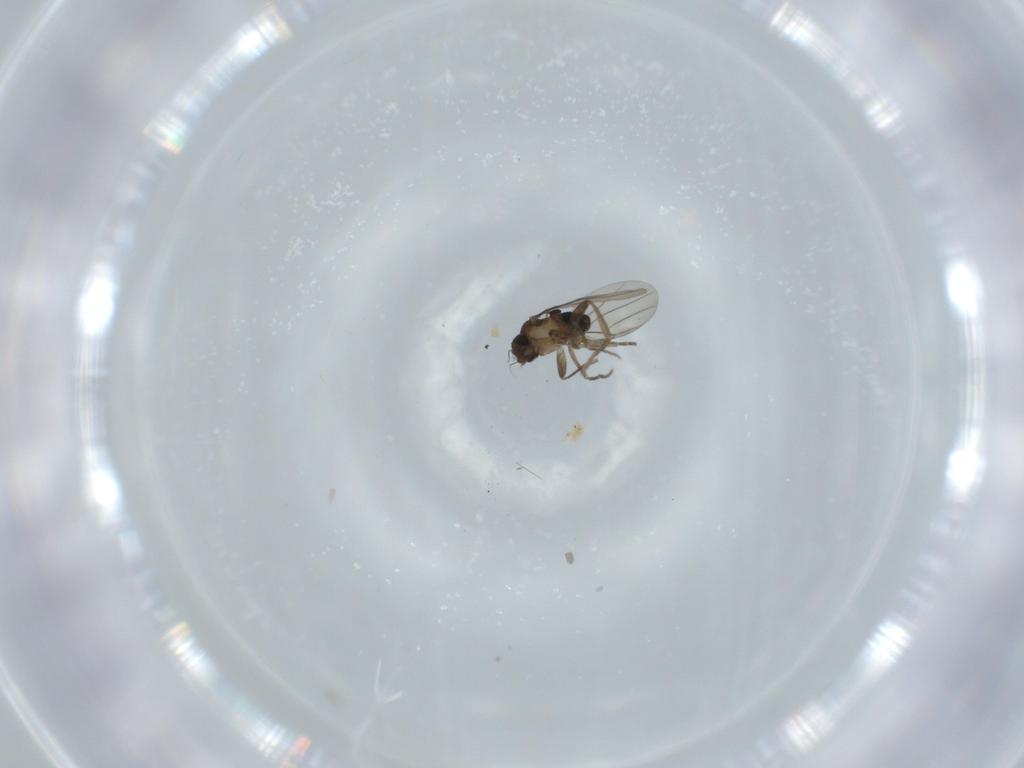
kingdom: Animalia
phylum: Arthropoda
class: Insecta
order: Diptera
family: Phoridae
